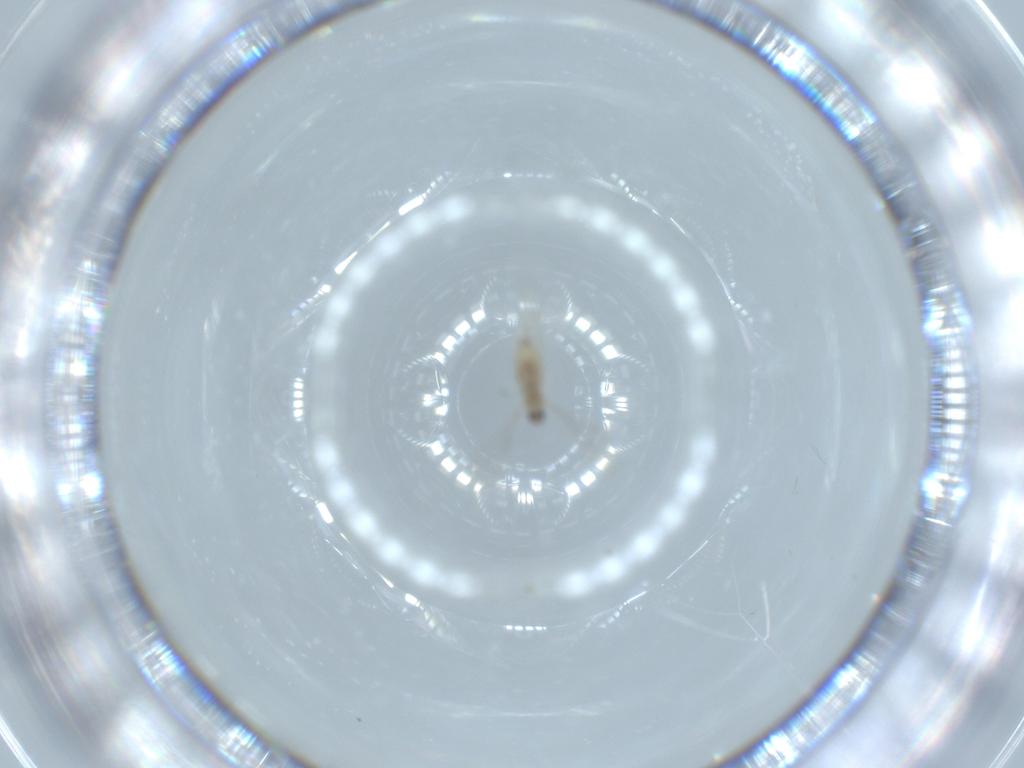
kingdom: Animalia
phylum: Arthropoda
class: Insecta
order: Diptera
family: Cecidomyiidae
